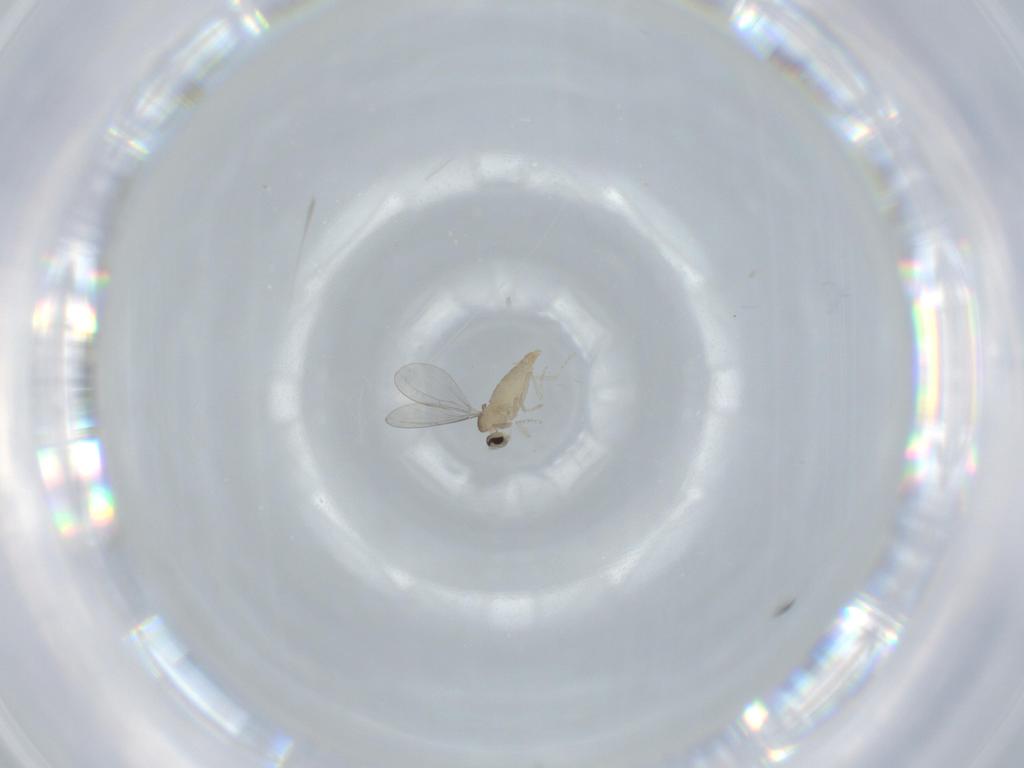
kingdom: Animalia
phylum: Arthropoda
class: Insecta
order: Diptera
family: Cecidomyiidae
